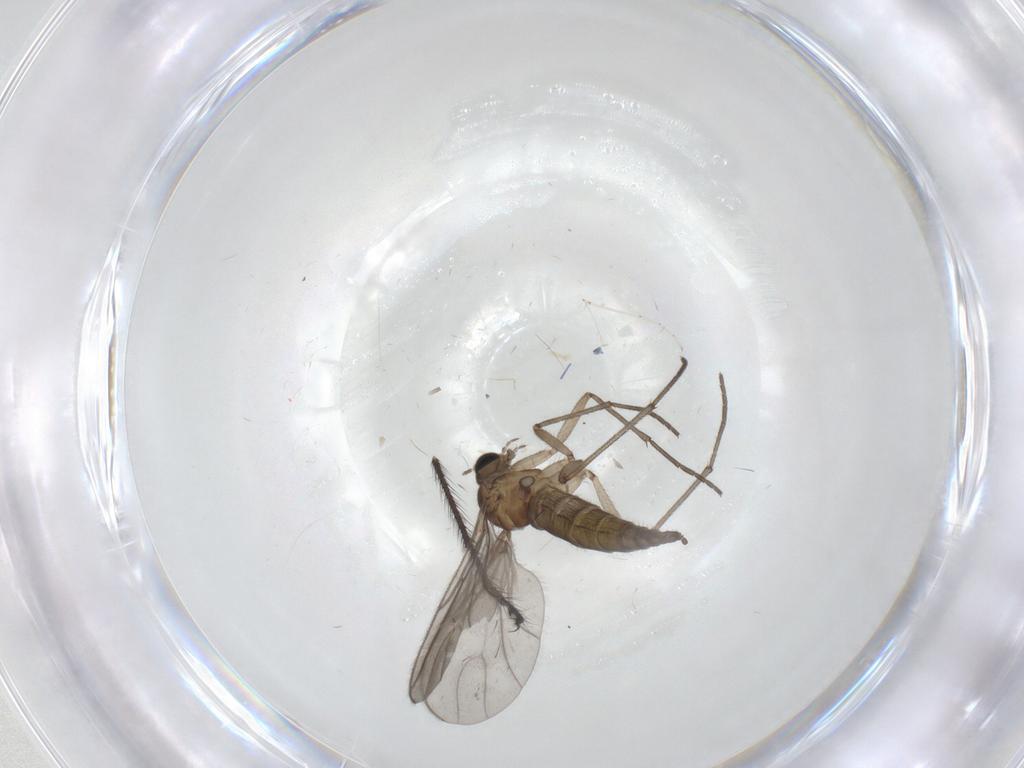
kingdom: Animalia
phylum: Arthropoda
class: Insecta
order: Diptera
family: Limoniidae
